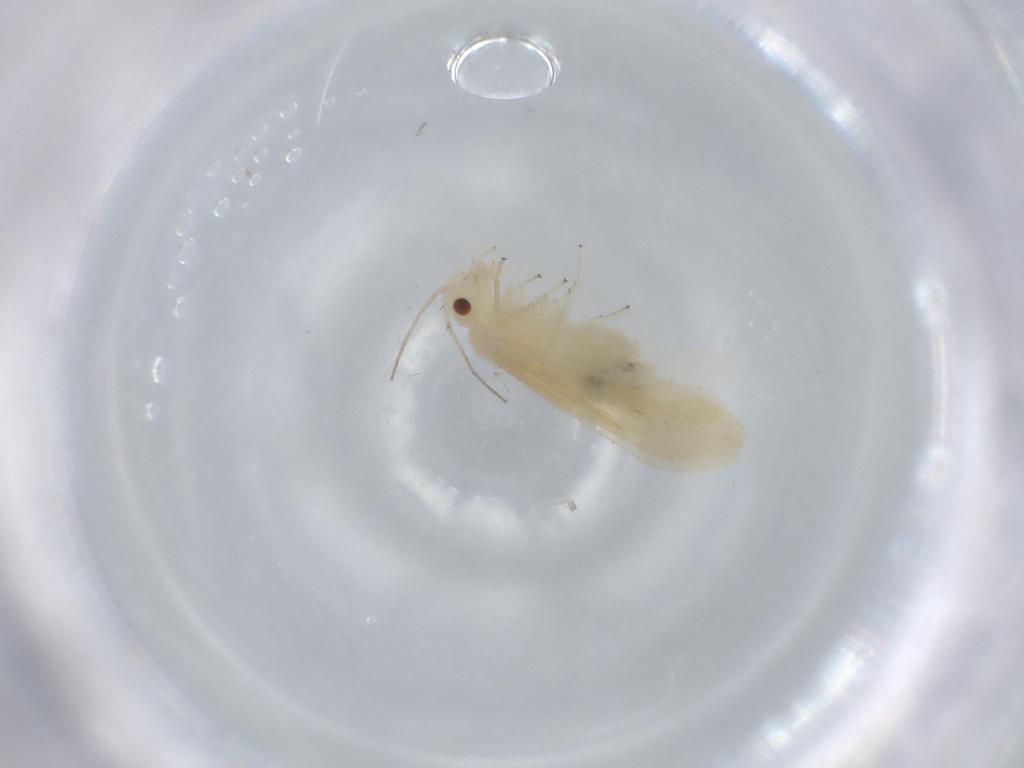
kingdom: Animalia
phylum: Arthropoda
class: Insecta
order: Psocodea
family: Caeciliusidae
